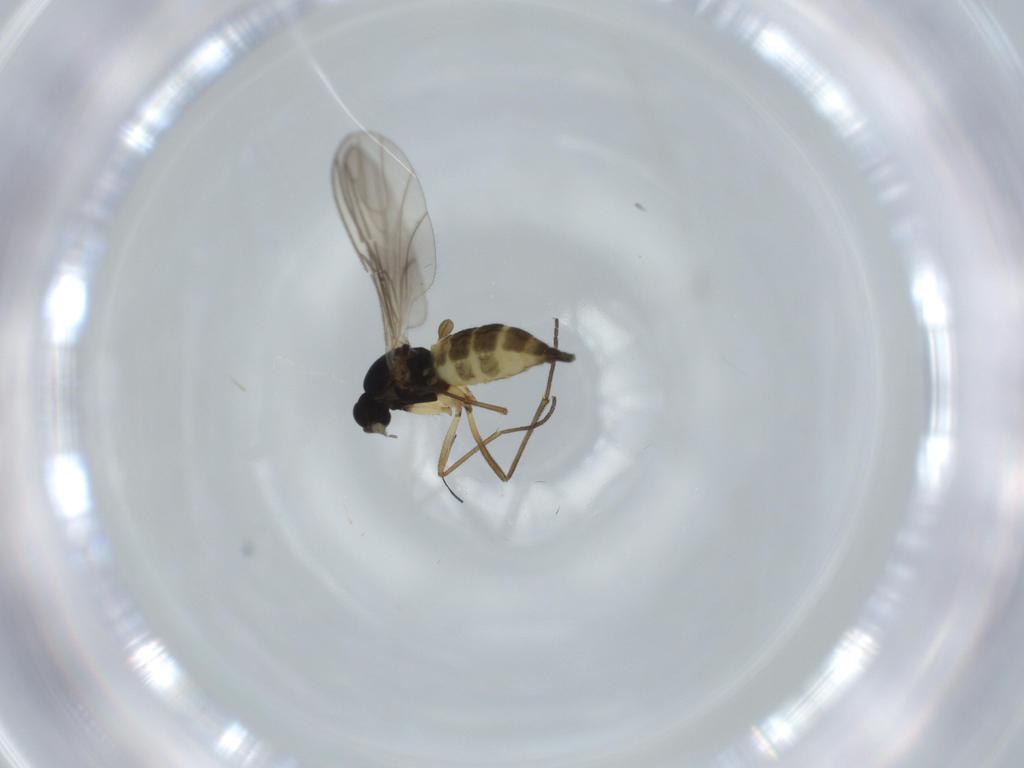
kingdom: Animalia
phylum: Arthropoda
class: Insecta
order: Diptera
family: Sciaridae
